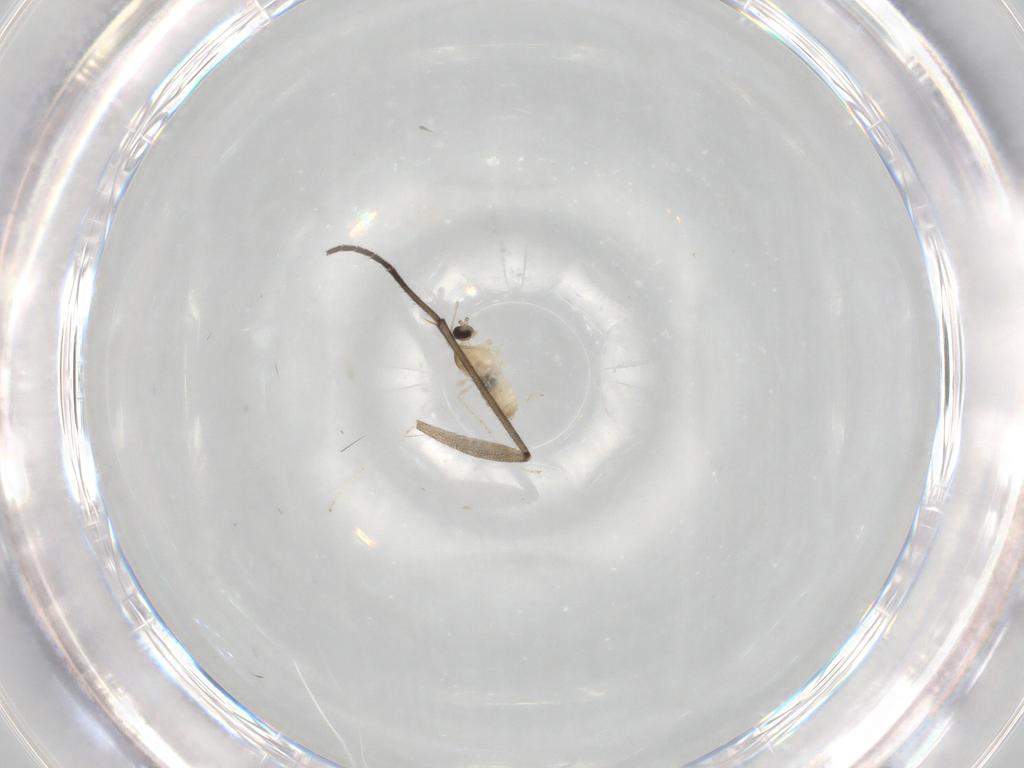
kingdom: Animalia
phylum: Arthropoda
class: Insecta
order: Diptera
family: Cecidomyiidae
